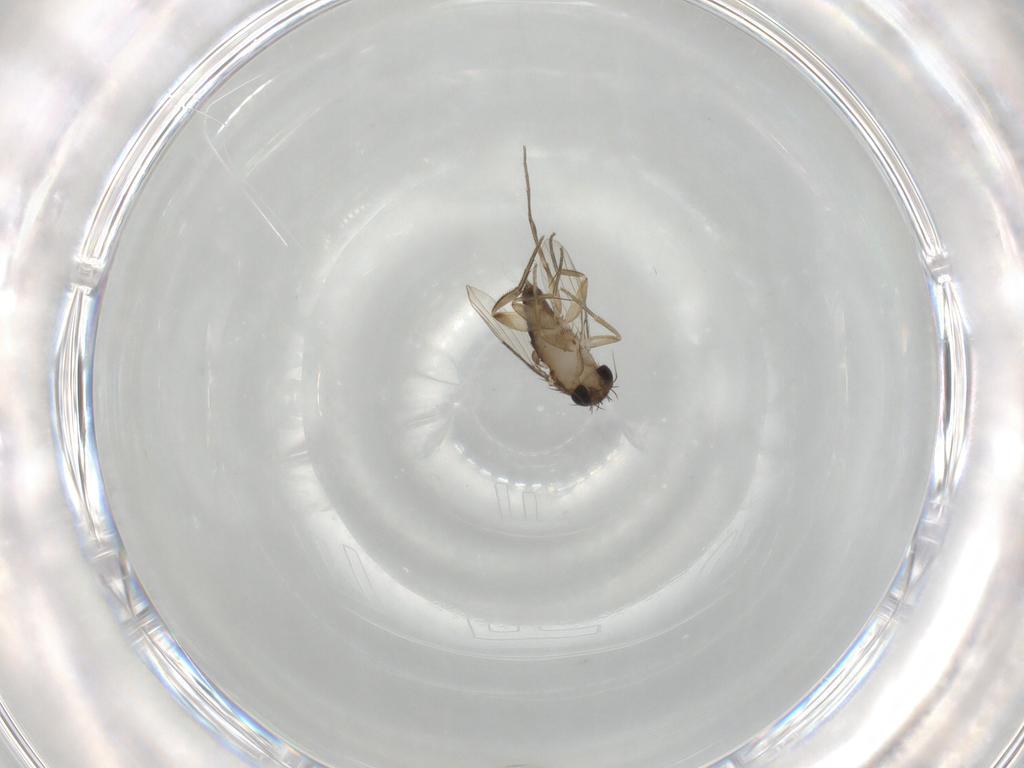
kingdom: Animalia
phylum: Arthropoda
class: Insecta
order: Diptera
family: Phoridae
